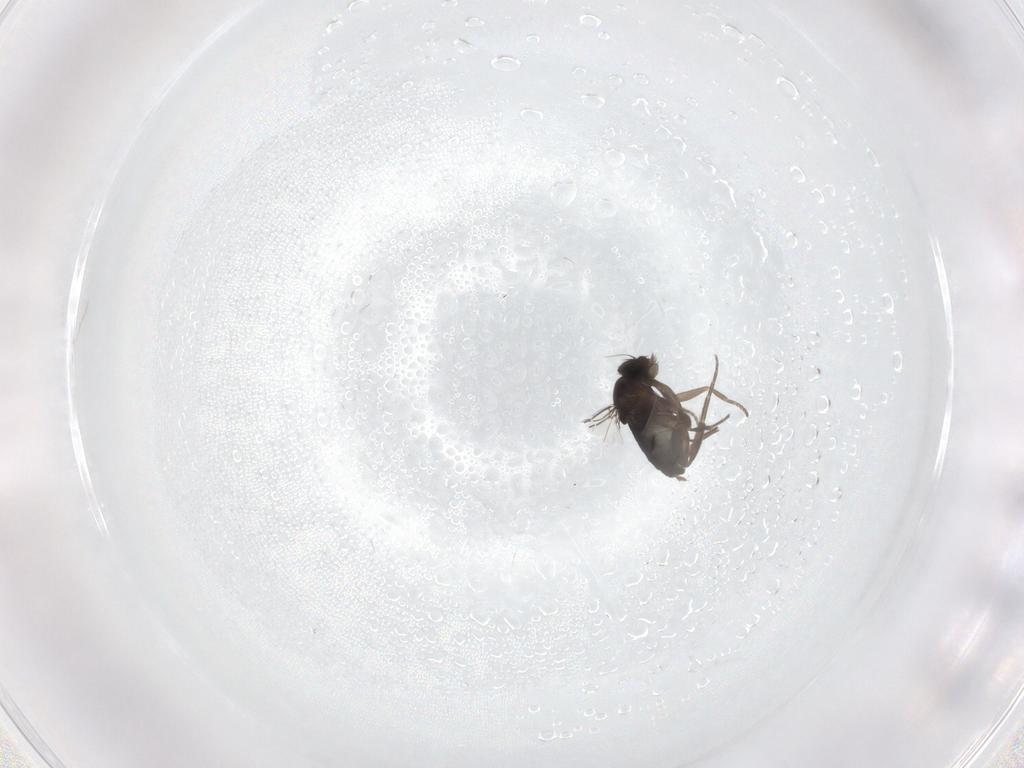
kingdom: Animalia
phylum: Arthropoda
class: Insecta
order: Diptera
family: Phoridae
